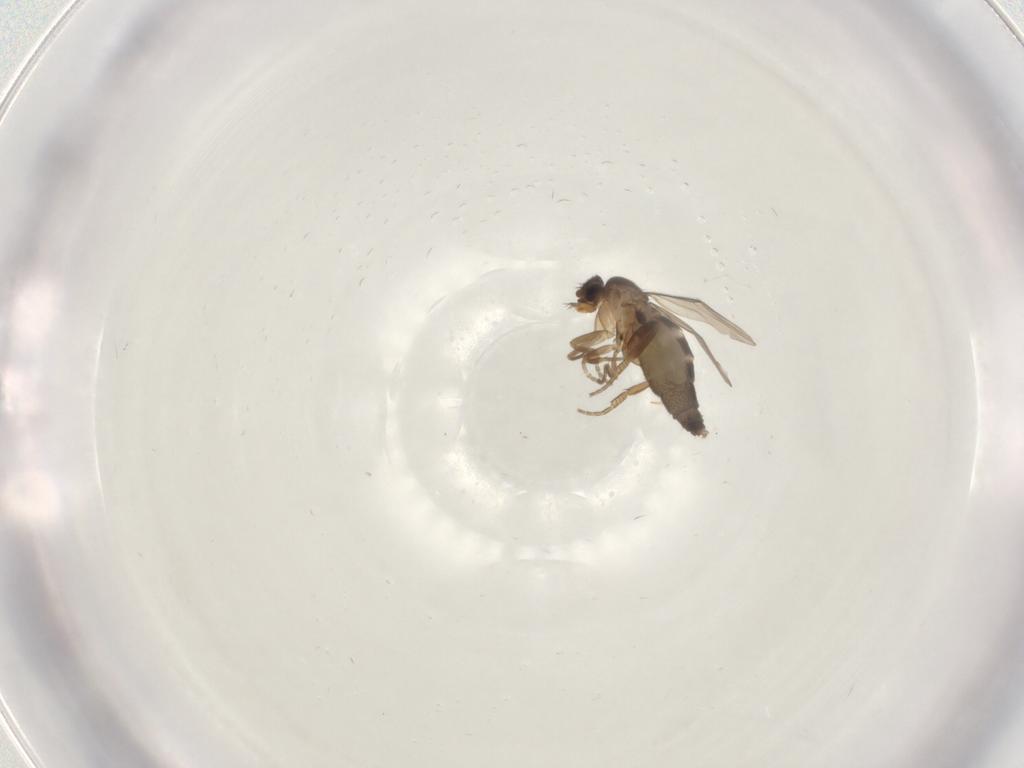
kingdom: Animalia
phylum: Arthropoda
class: Insecta
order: Diptera
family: Phoridae
